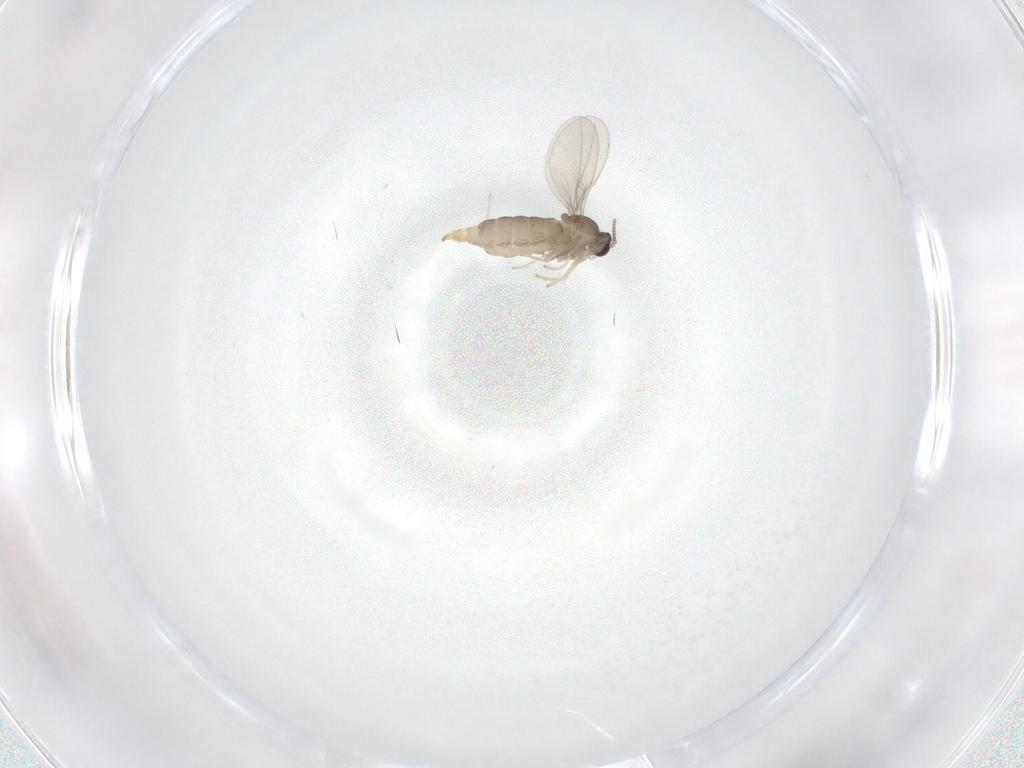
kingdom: Animalia
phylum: Arthropoda
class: Insecta
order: Diptera
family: Cecidomyiidae
